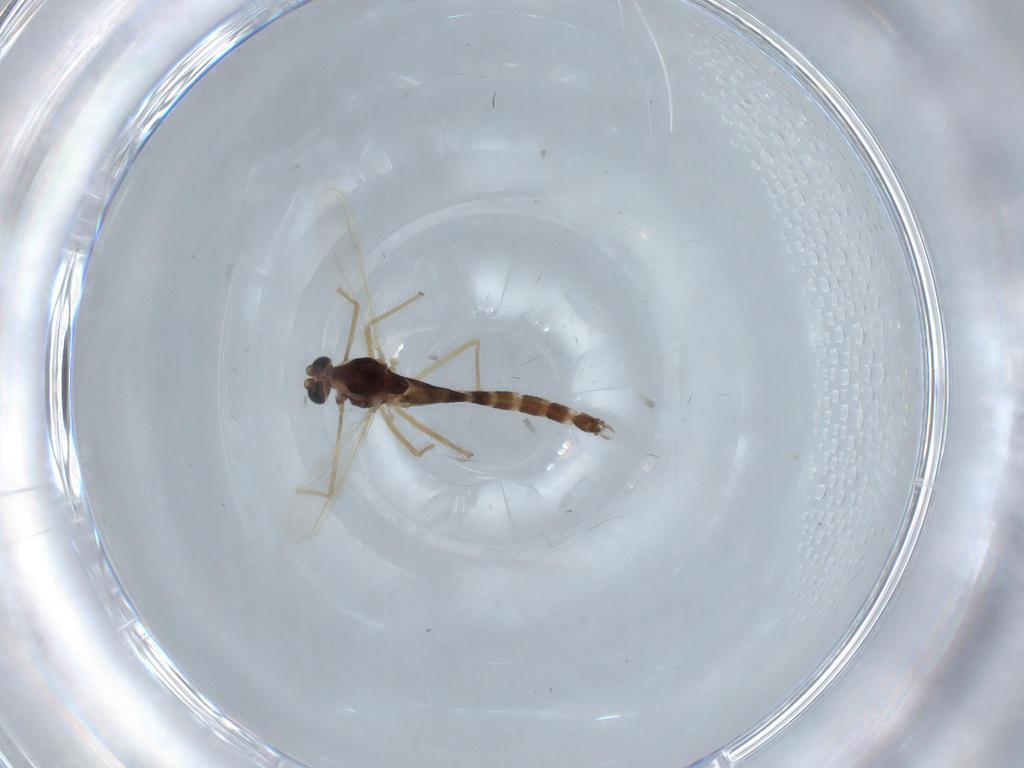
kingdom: Animalia
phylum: Arthropoda
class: Insecta
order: Diptera
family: Chironomidae
